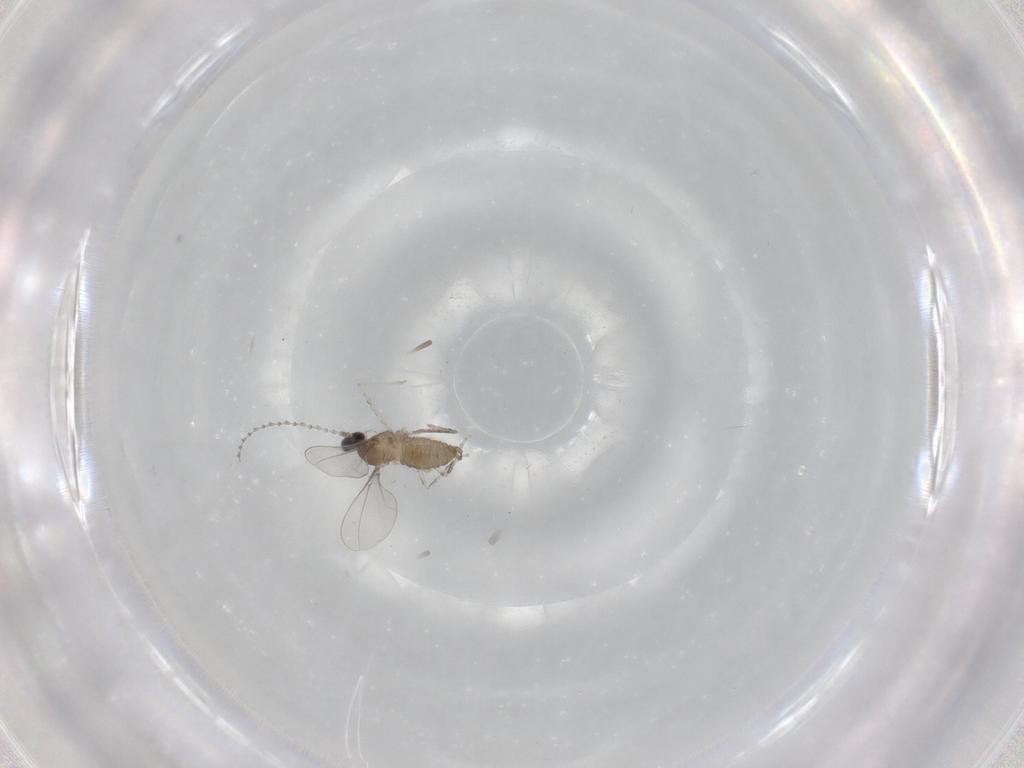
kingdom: Animalia
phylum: Arthropoda
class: Insecta
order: Diptera
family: Cecidomyiidae
